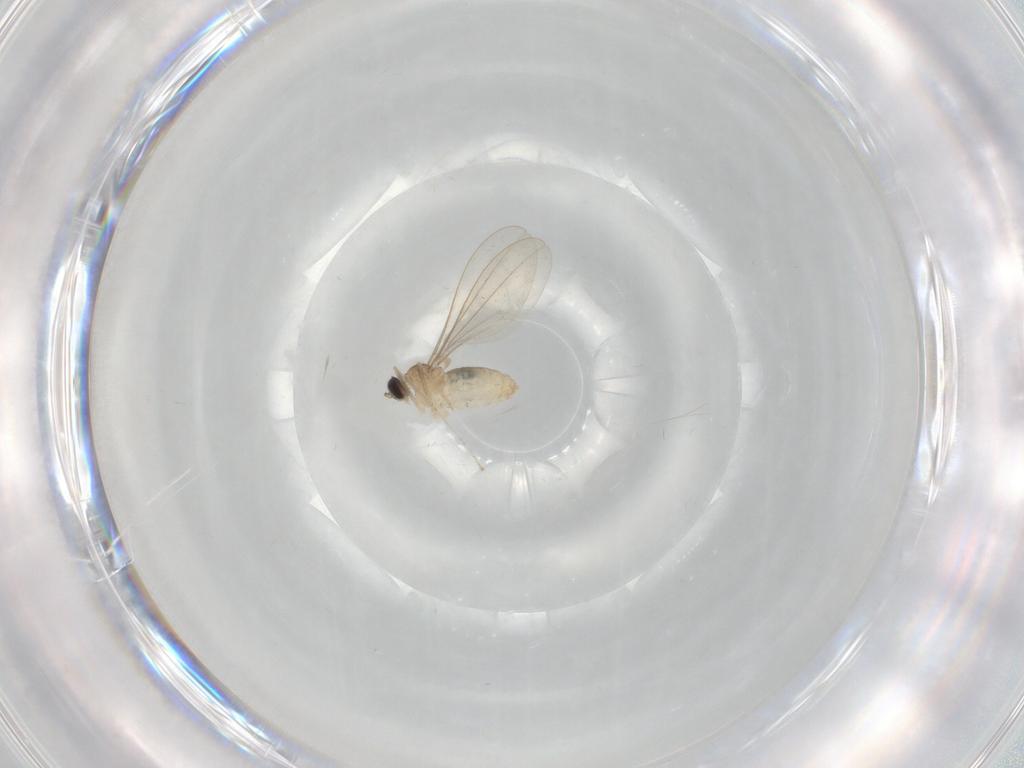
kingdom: Animalia
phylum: Arthropoda
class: Insecta
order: Diptera
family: Cecidomyiidae
